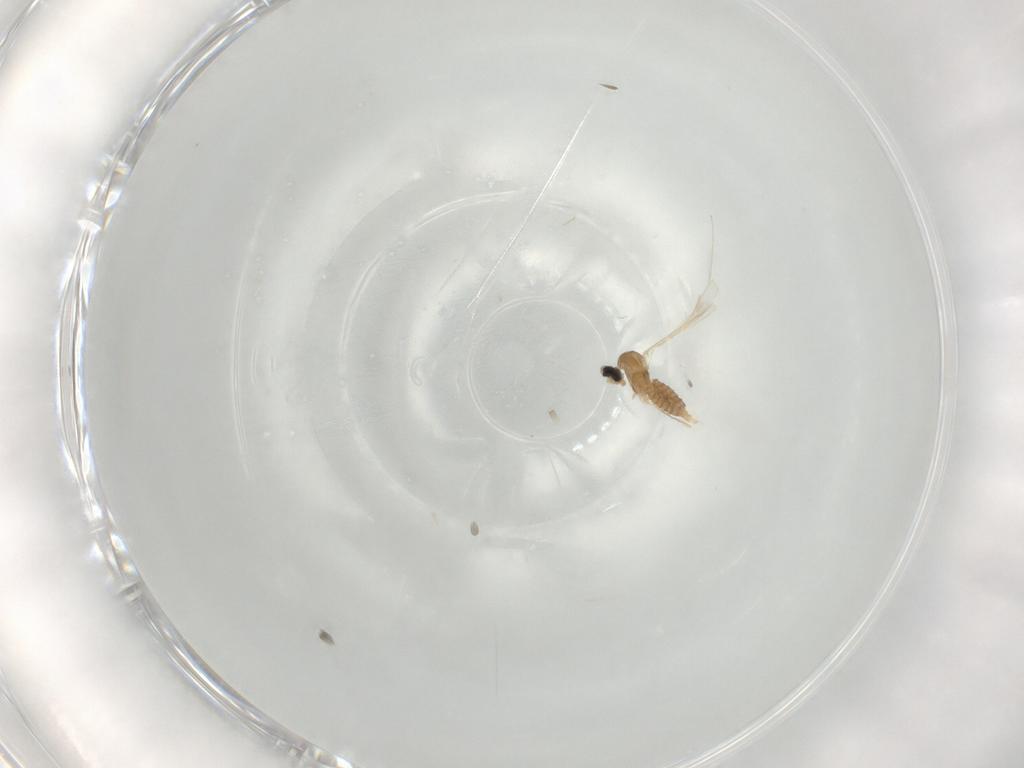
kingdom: Animalia
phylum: Arthropoda
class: Insecta
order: Diptera
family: Cecidomyiidae
